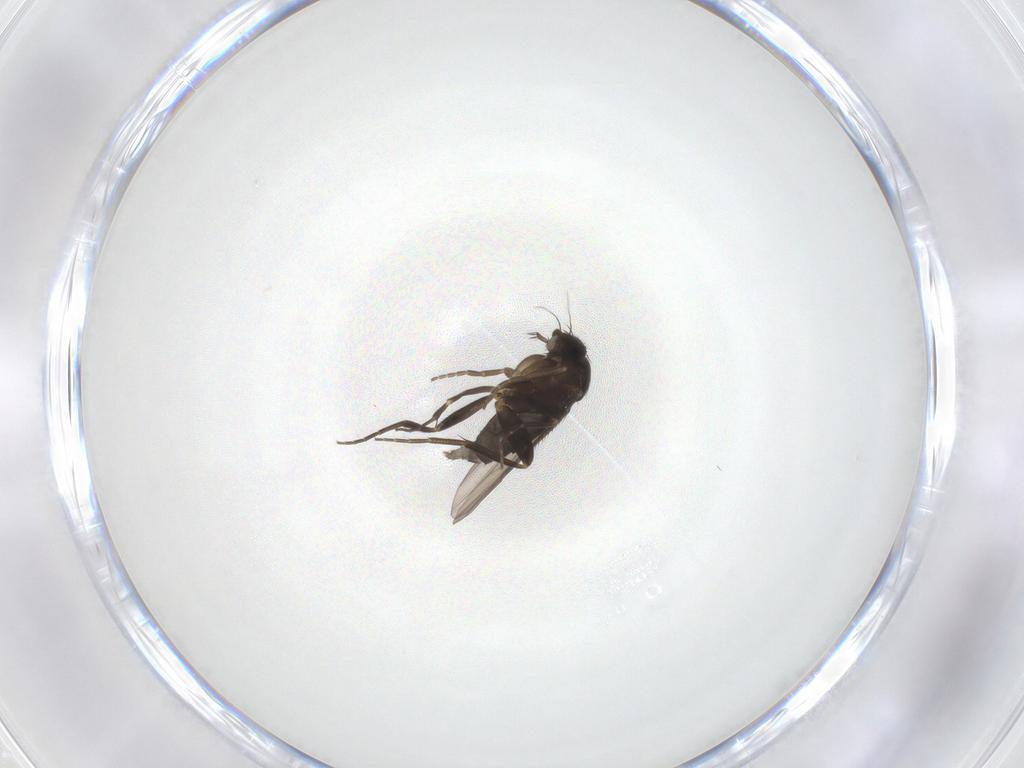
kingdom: Animalia
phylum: Arthropoda
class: Insecta
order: Diptera
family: Phoridae
